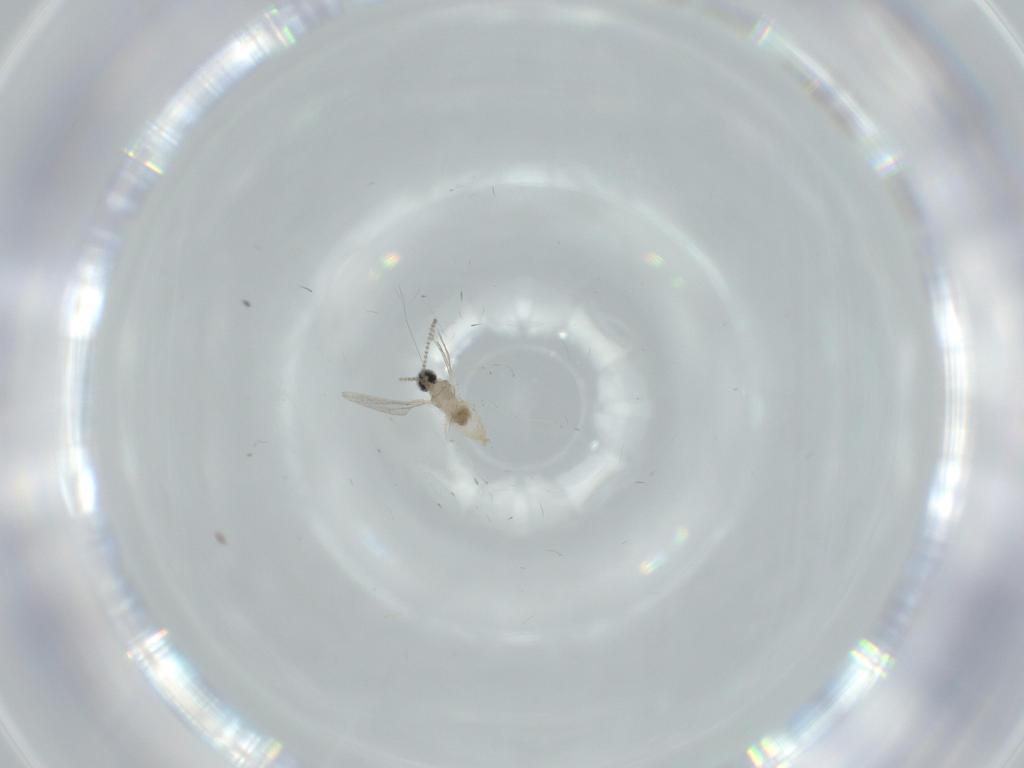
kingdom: Animalia
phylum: Arthropoda
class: Insecta
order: Diptera
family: Cecidomyiidae
